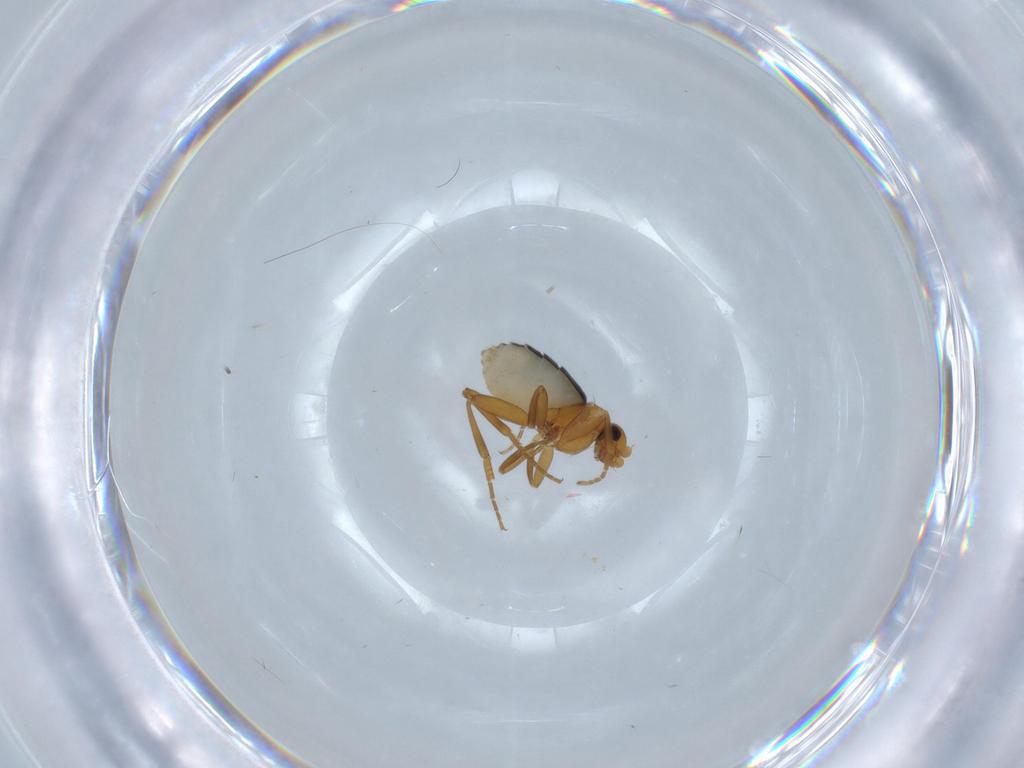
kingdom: Animalia
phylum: Arthropoda
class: Insecta
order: Diptera
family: Phoridae
